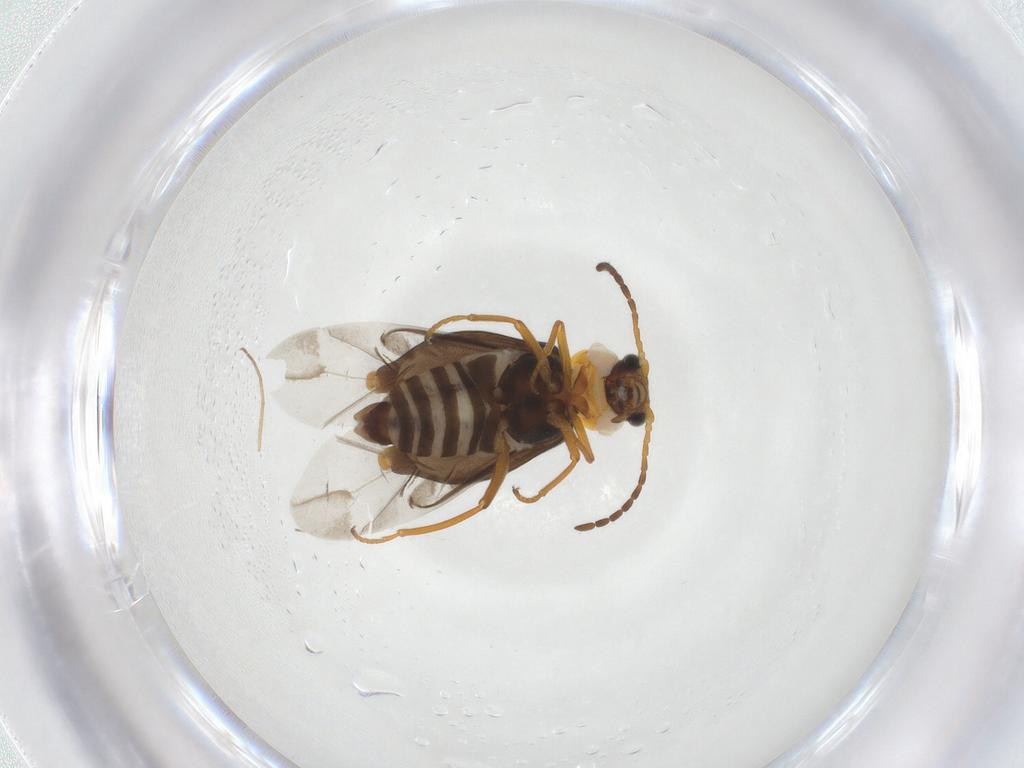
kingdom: Animalia
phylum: Arthropoda
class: Insecta
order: Coleoptera
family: Melyridae
